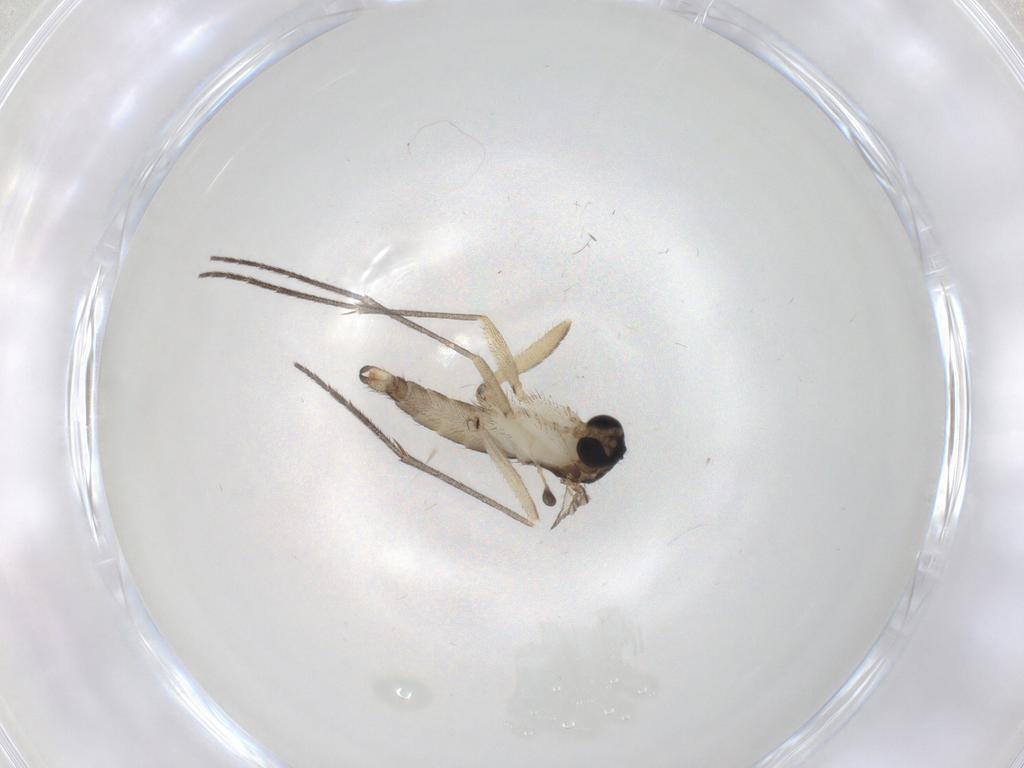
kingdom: Animalia
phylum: Arthropoda
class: Insecta
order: Diptera
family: Sciaridae
